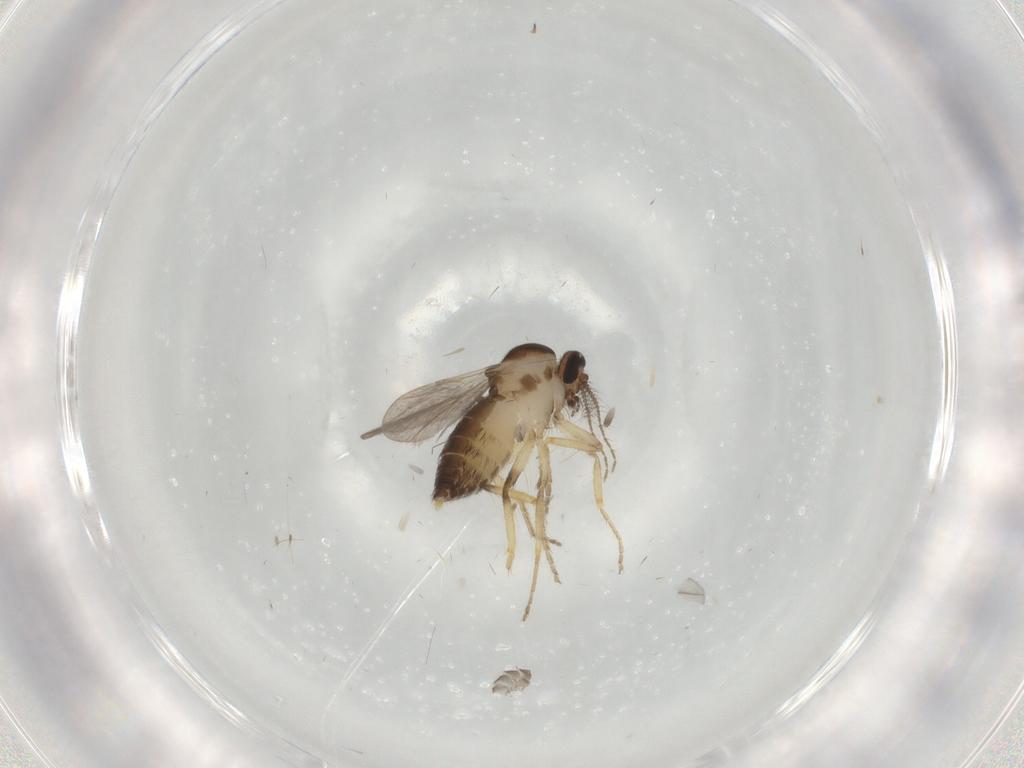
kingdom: Animalia
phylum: Arthropoda
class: Insecta
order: Diptera
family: Ceratopogonidae
